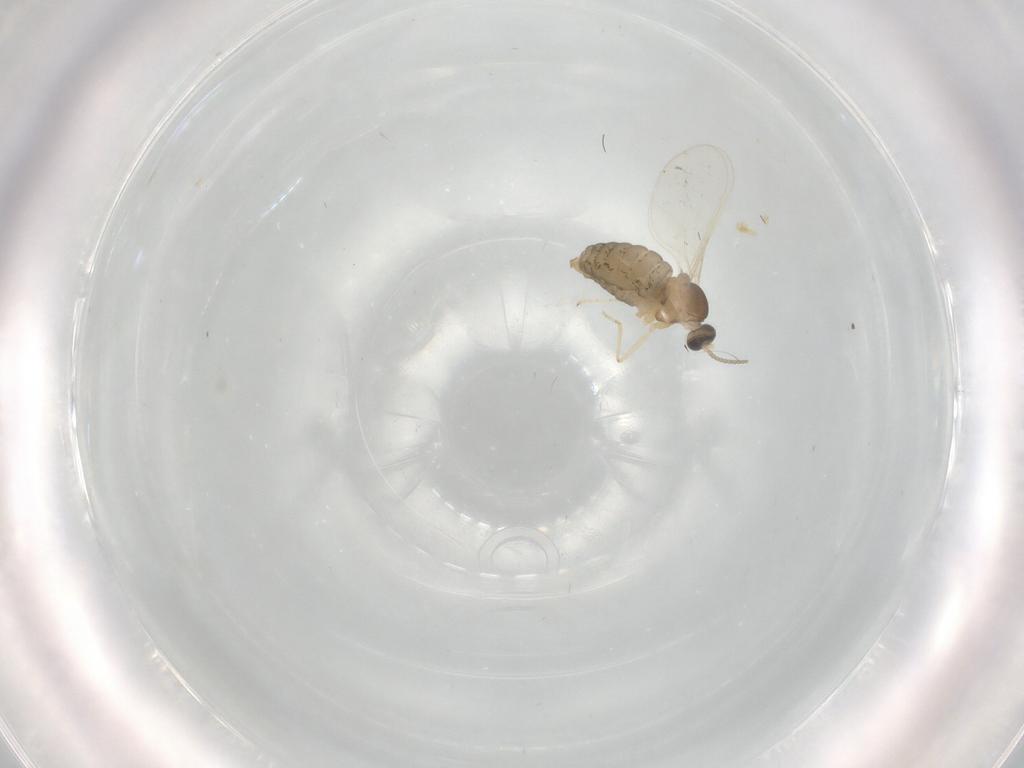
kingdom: Animalia
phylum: Arthropoda
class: Insecta
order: Diptera
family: Cecidomyiidae
